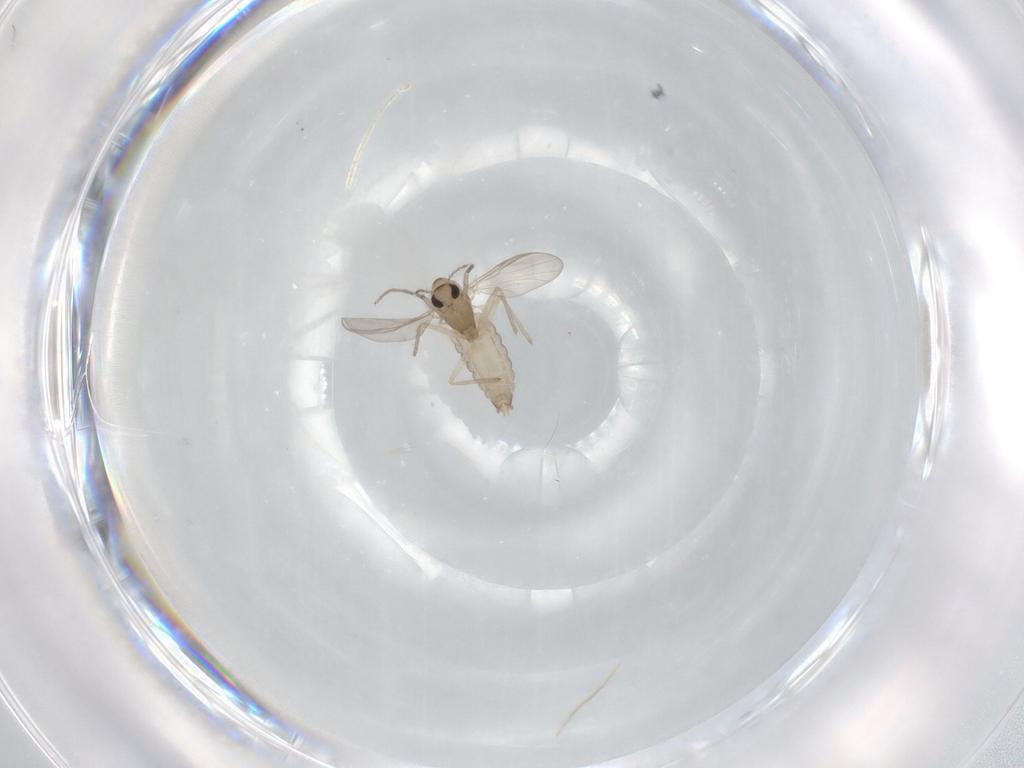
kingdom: Animalia
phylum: Arthropoda
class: Insecta
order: Diptera
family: Chironomidae
